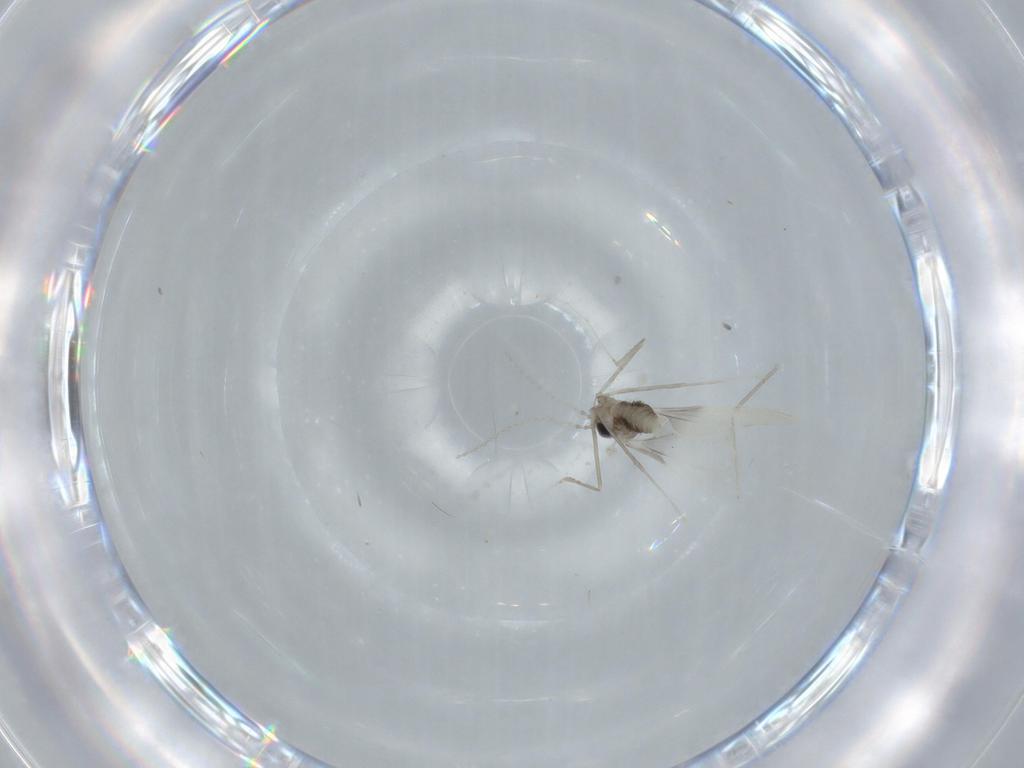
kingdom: Animalia
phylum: Arthropoda
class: Insecta
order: Diptera
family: Cecidomyiidae
